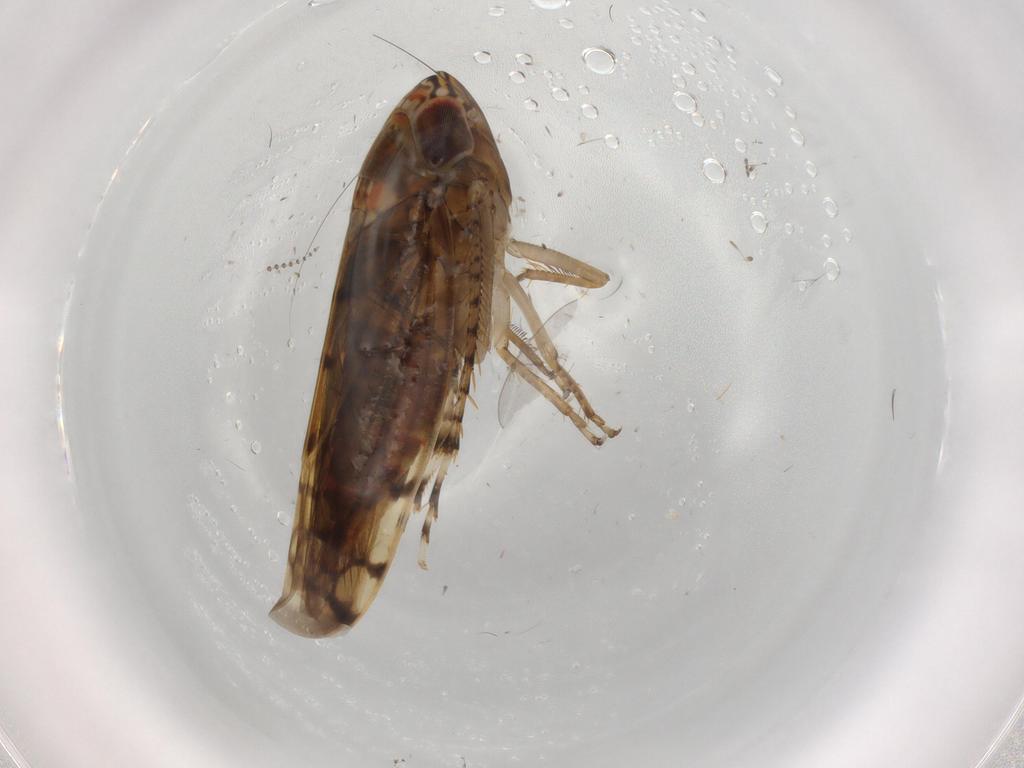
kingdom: Animalia
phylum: Arthropoda
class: Insecta
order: Hemiptera
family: Cicadellidae
